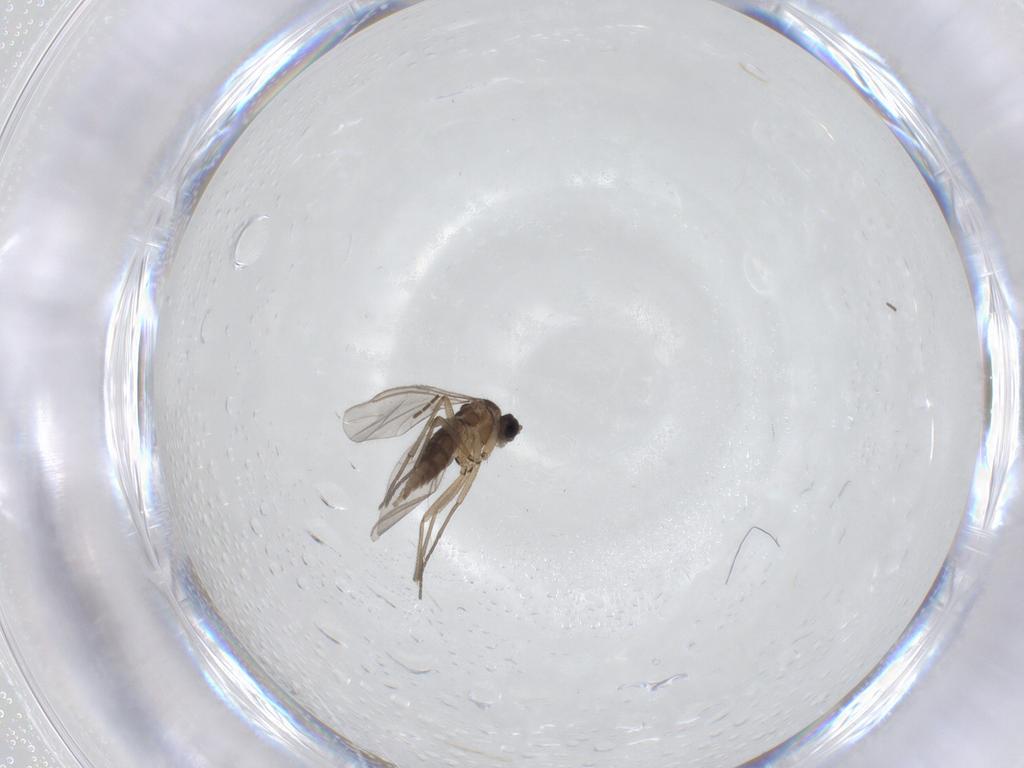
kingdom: Animalia
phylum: Arthropoda
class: Insecta
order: Diptera
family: Sciaridae
